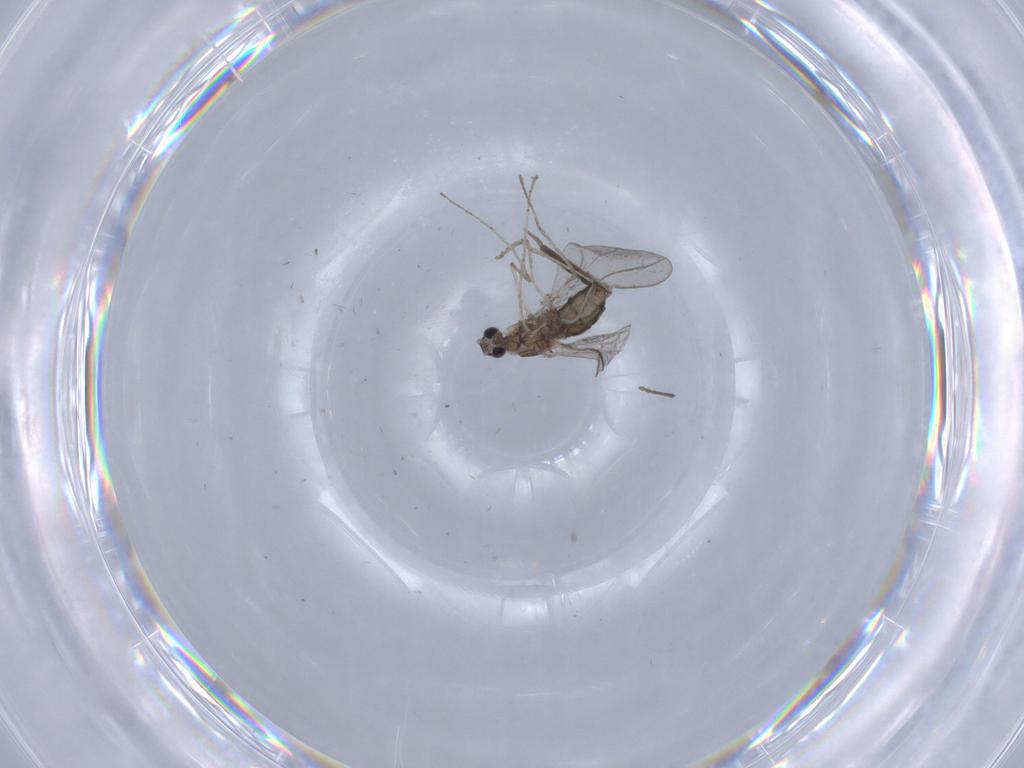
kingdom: Animalia
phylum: Arthropoda
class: Insecta
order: Diptera
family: Cecidomyiidae
